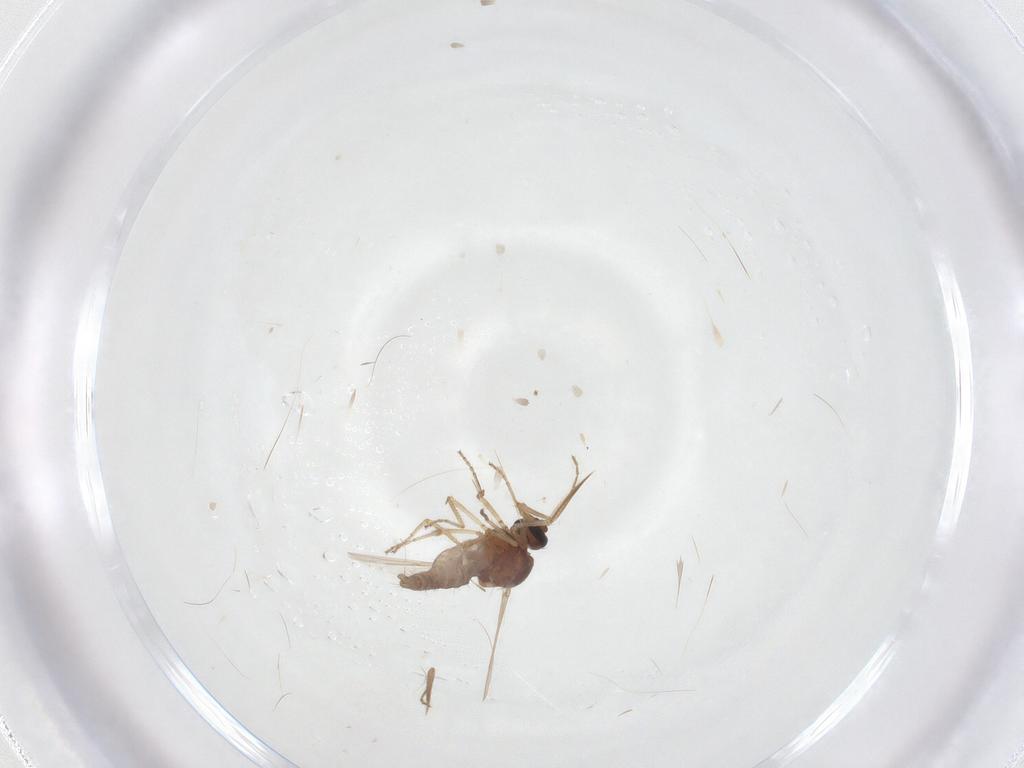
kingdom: Animalia
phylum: Arthropoda
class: Insecta
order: Diptera
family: Ceratopogonidae
